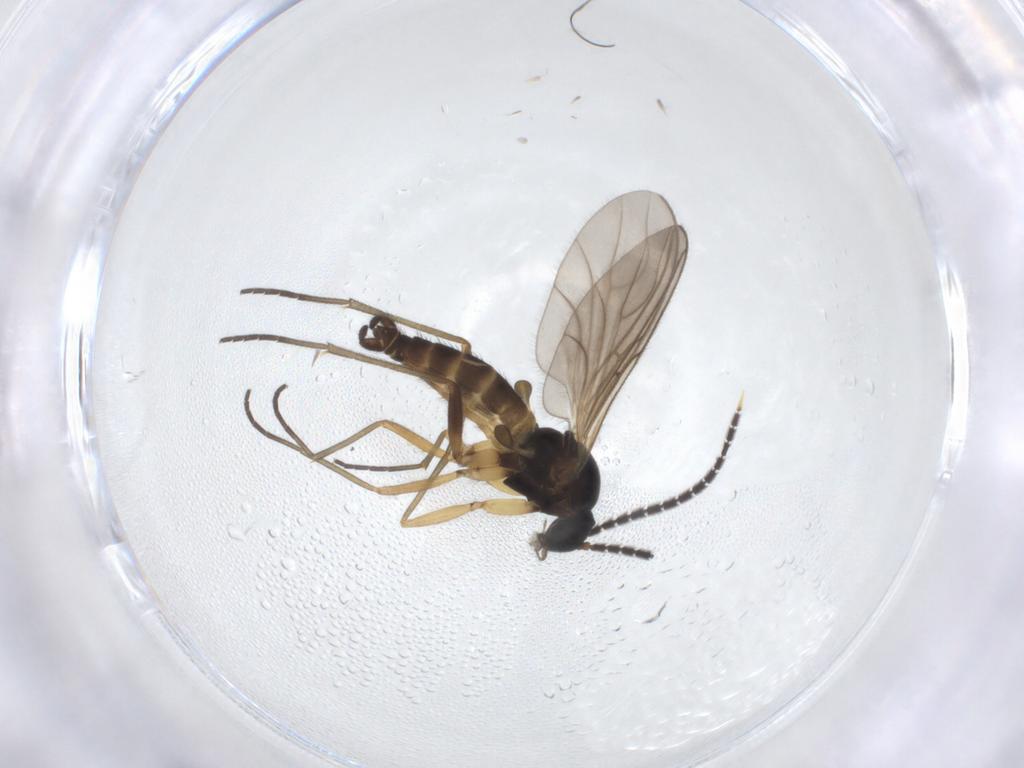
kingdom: Animalia
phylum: Arthropoda
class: Insecta
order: Diptera
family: Sciaridae
